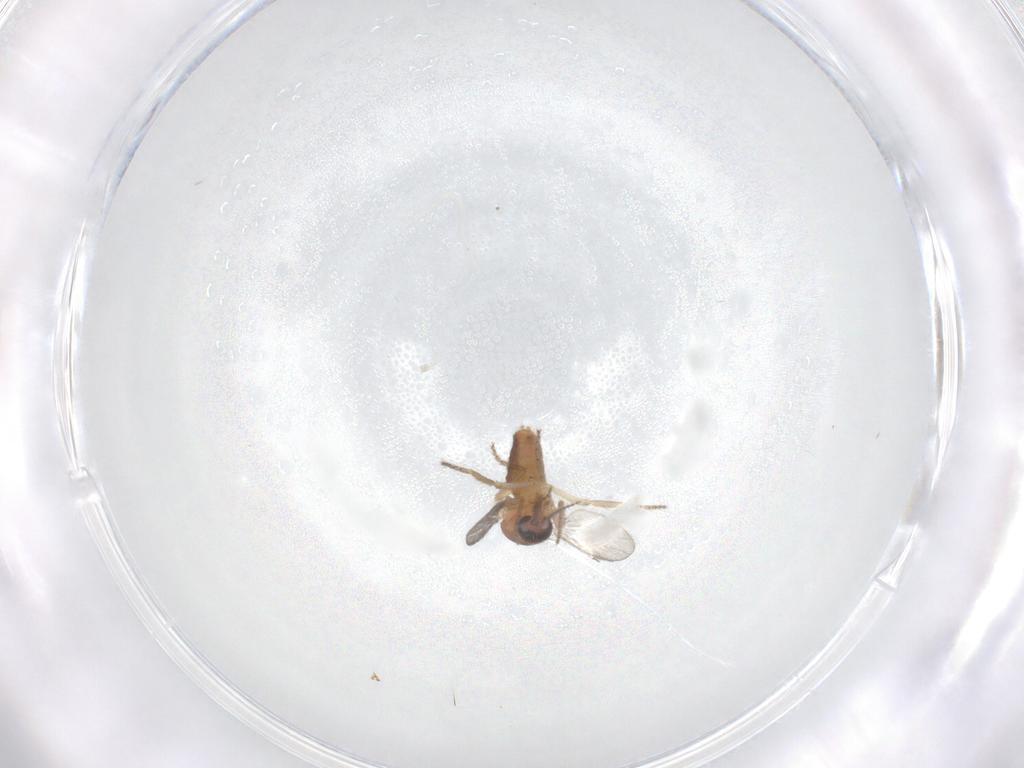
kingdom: Animalia
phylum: Arthropoda
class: Insecta
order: Diptera
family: Ceratopogonidae
